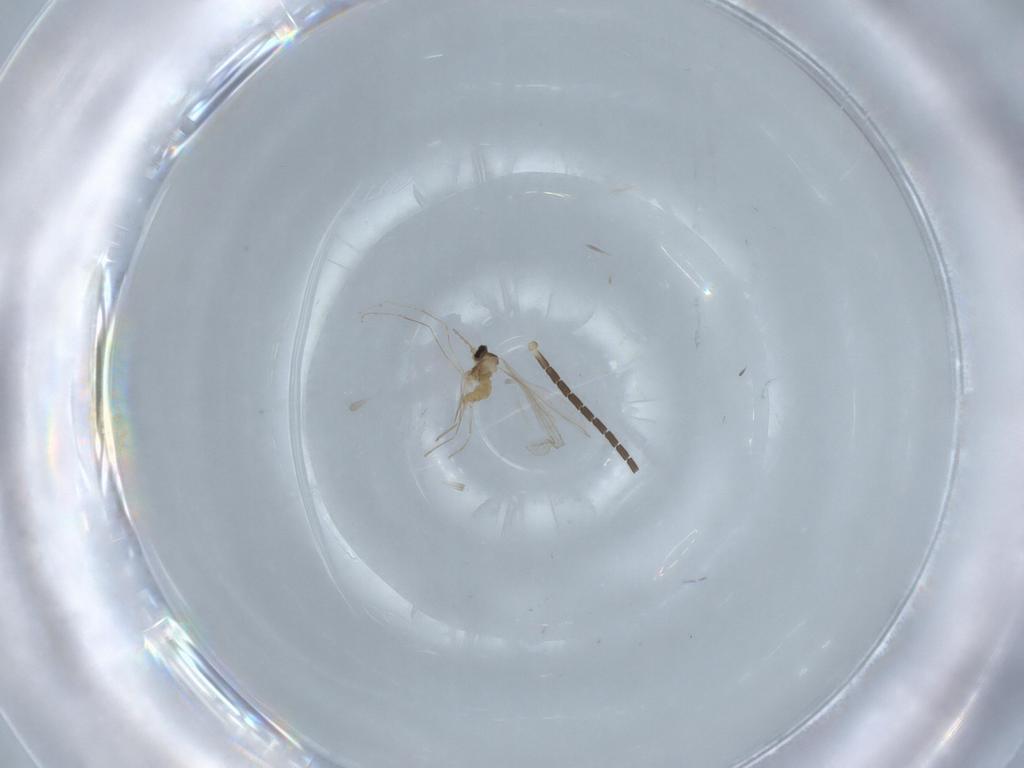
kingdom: Animalia
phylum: Arthropoda
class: Insecta
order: Diptera
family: Mycetophilidae
